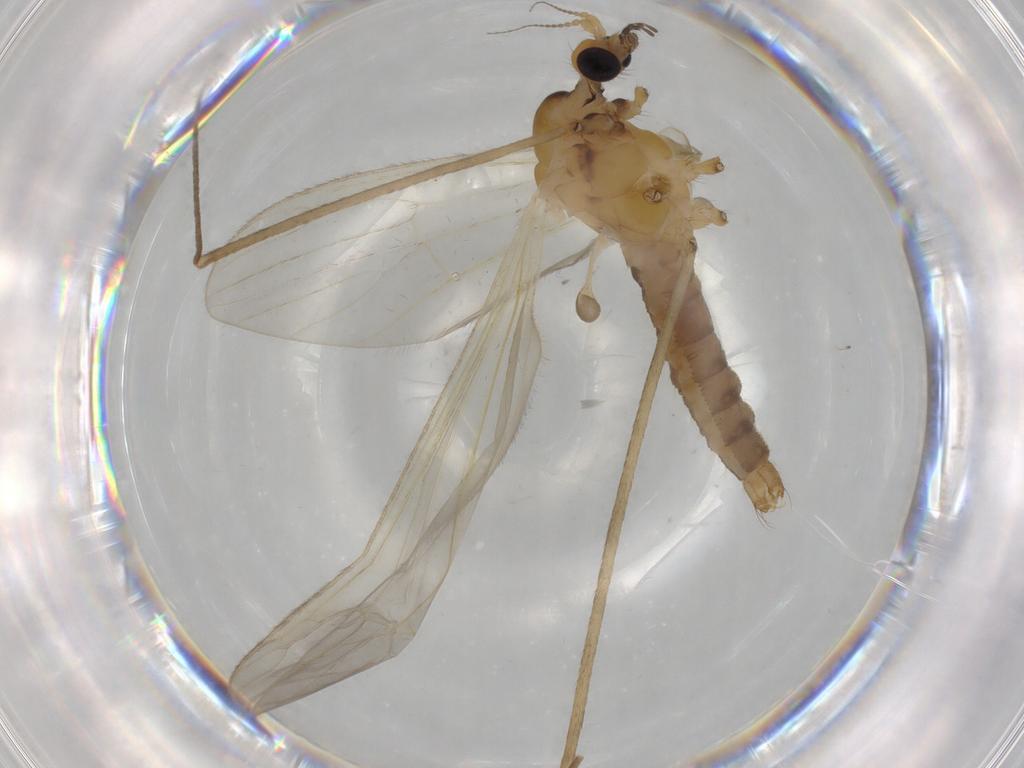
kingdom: Animalia
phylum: Arthropoda
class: Insecta
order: Diptera
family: Limoniidae
